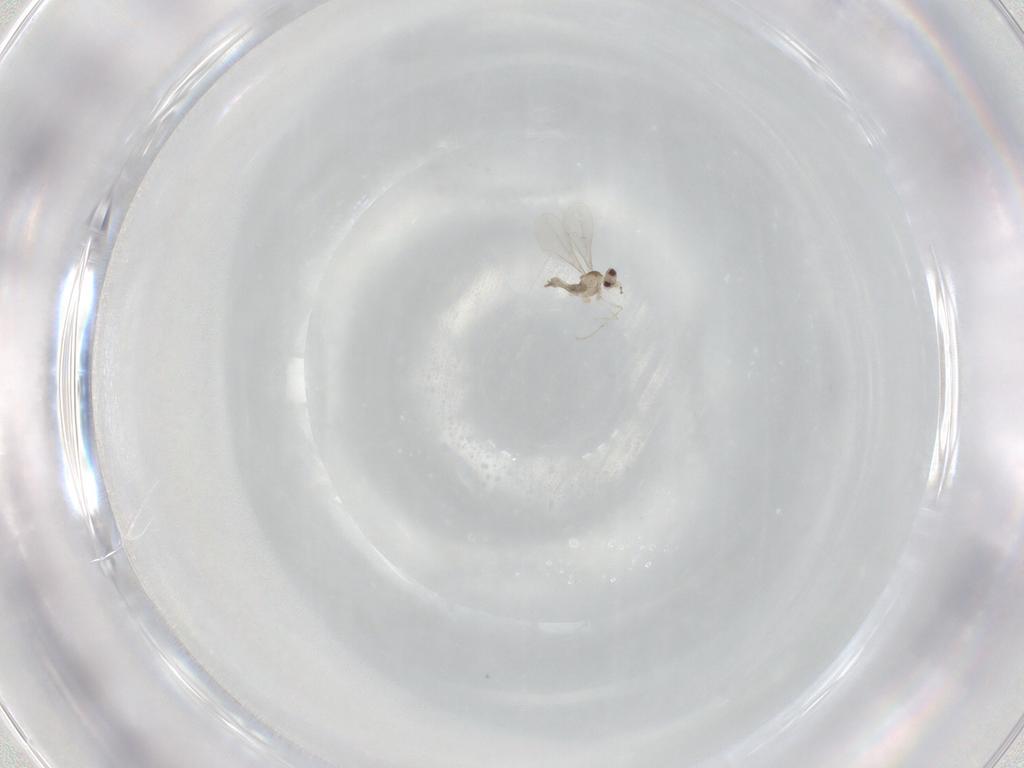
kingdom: Animalia
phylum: Arthropoda
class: Insecta
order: Diptera
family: Cecidomyiidae
